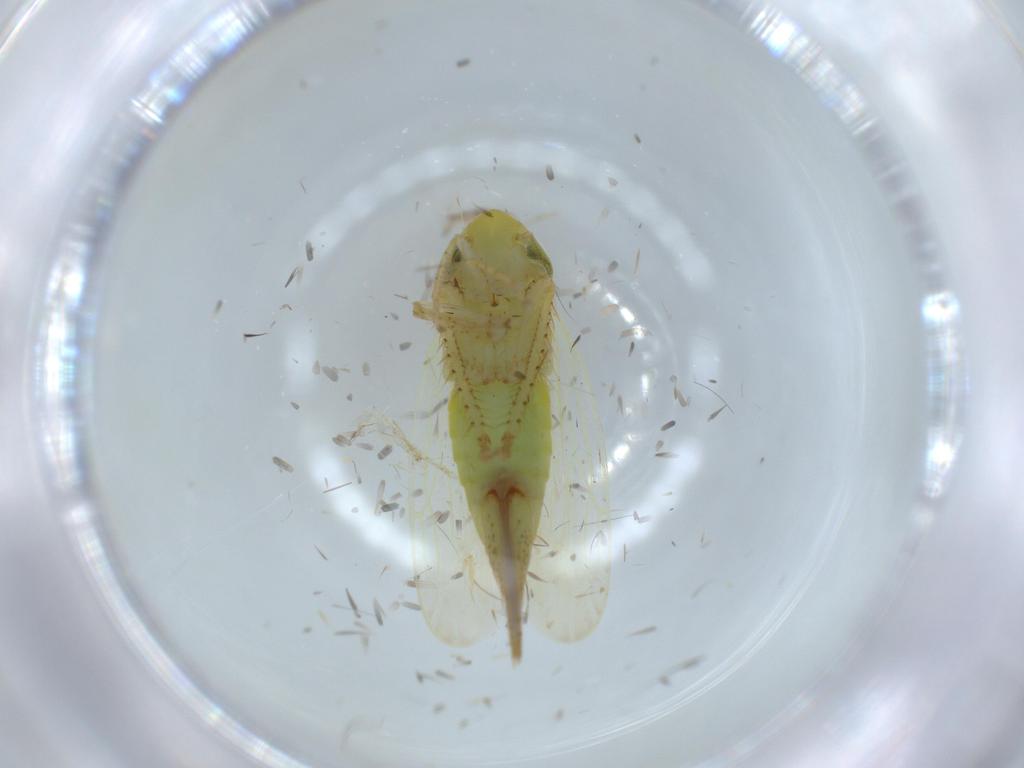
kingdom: Animalia
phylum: Arthropoda
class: Insecta
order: Hemiptera
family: Cicadellidae
